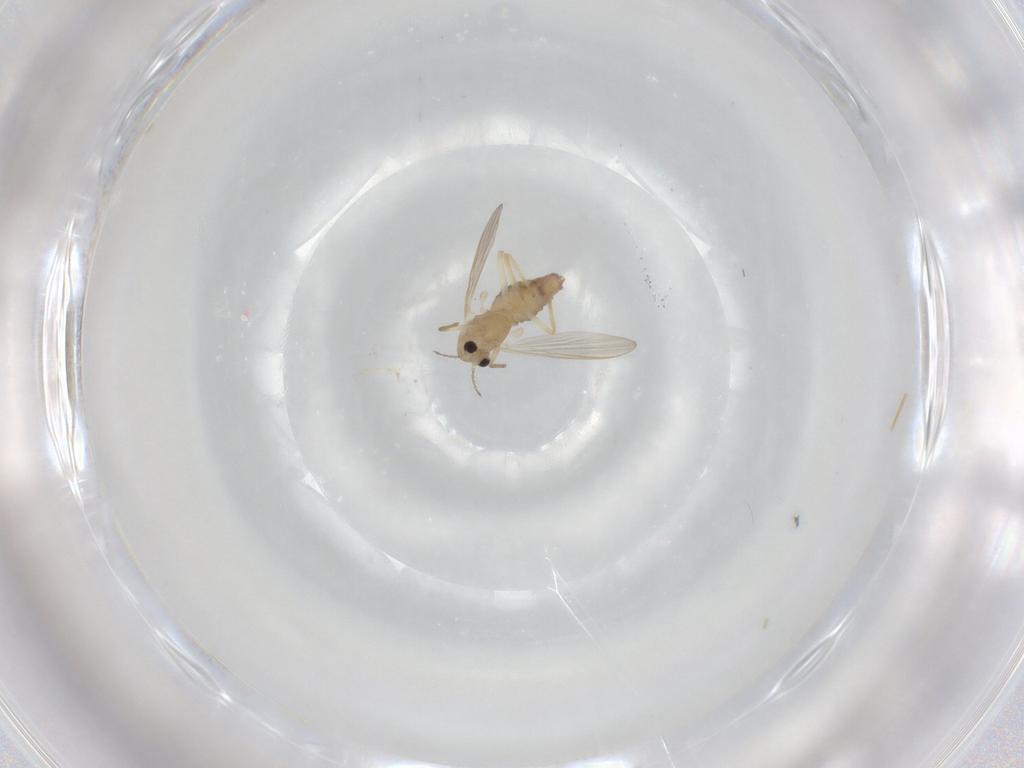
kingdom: Animalia
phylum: Arthropoda
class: Insecta
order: Diptera
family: Chironomidae
